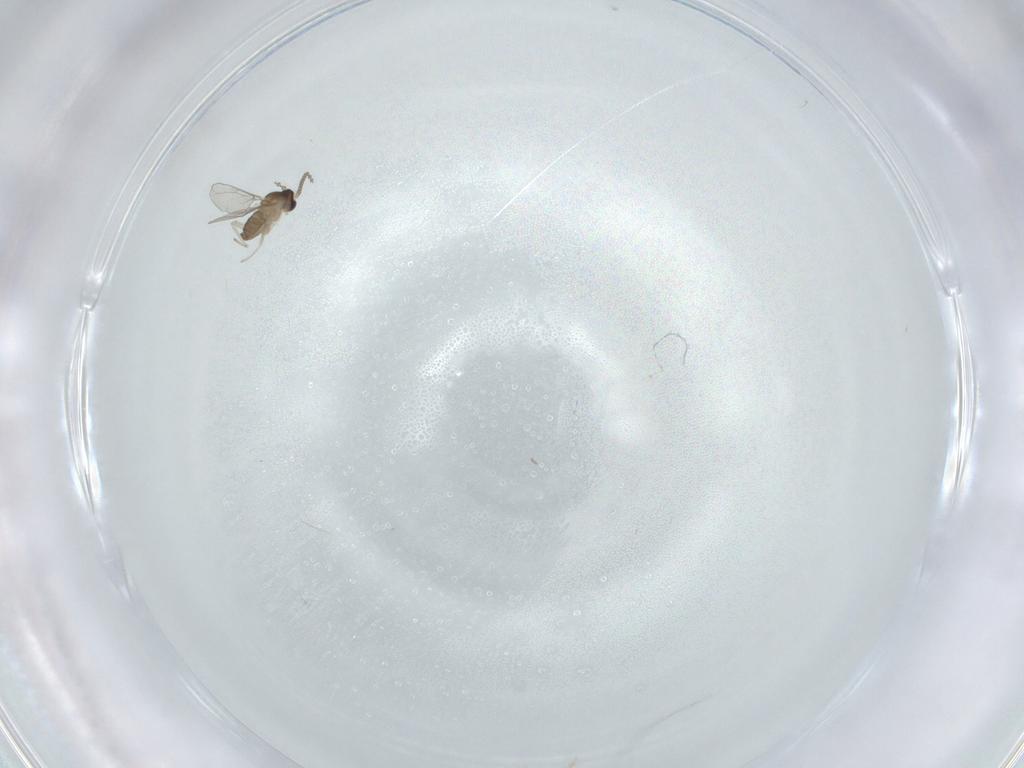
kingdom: Animalia
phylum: Arthropoda
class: Insecta
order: Diptera
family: Cecidomyiidae
